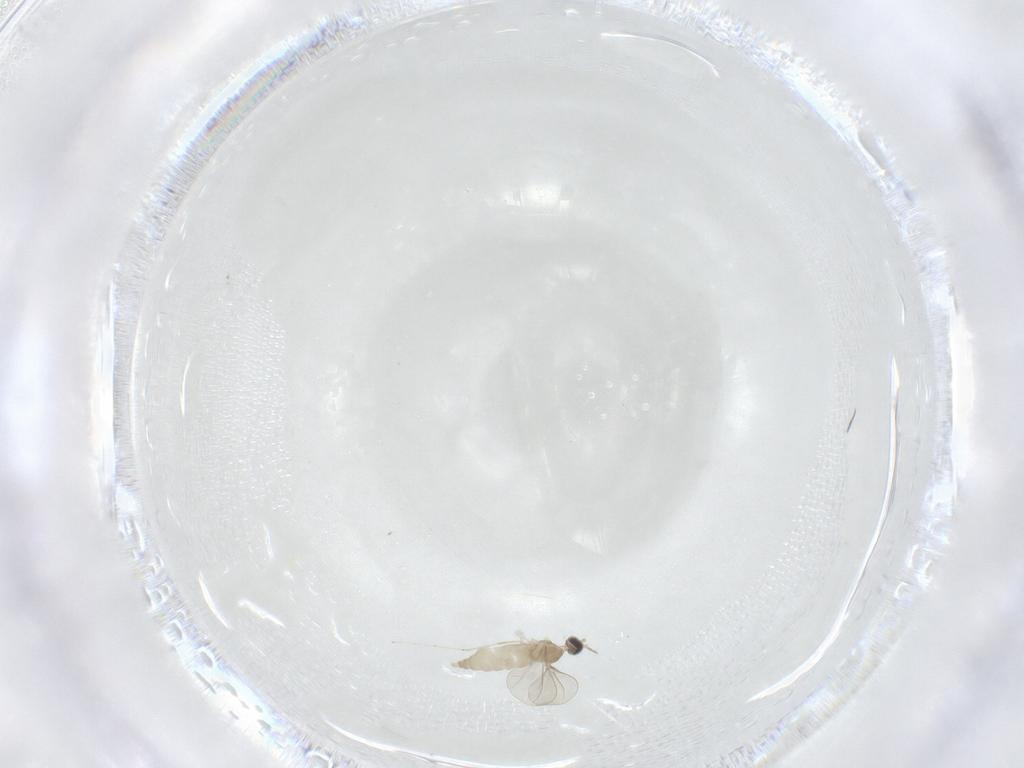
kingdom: Animalia
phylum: Arthropoda
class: Insecta
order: Diptera
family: Cecidomyiidae
